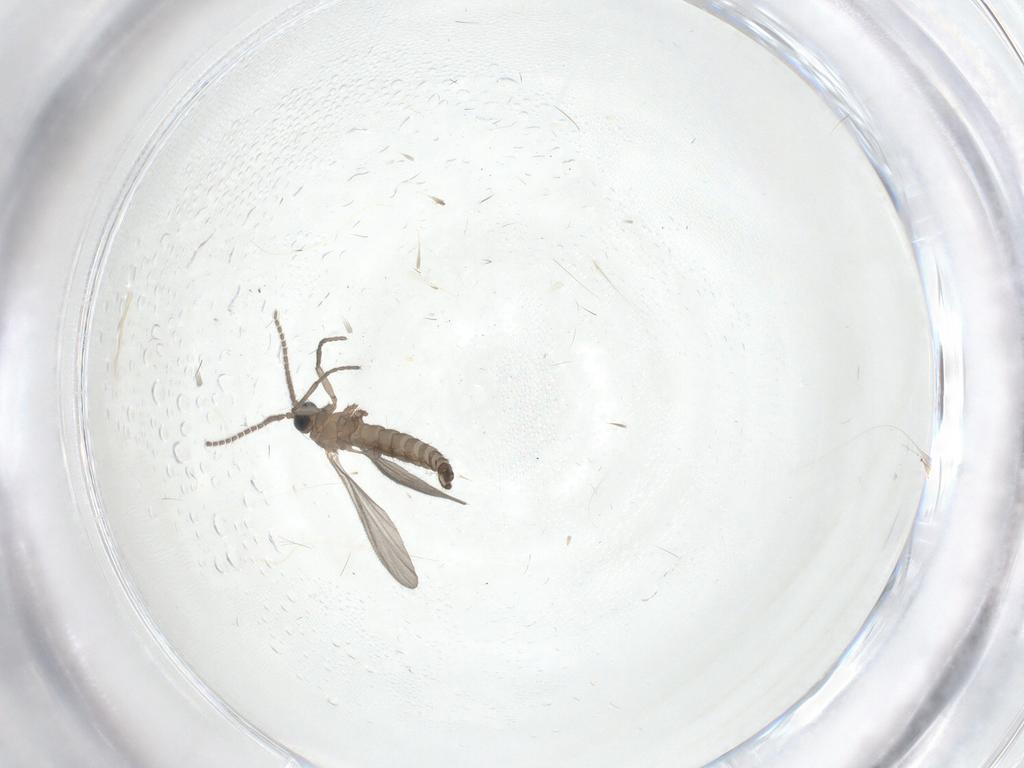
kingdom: Animalia
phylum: Arthropoda
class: Insecta
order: Diptera
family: Sciaridae
